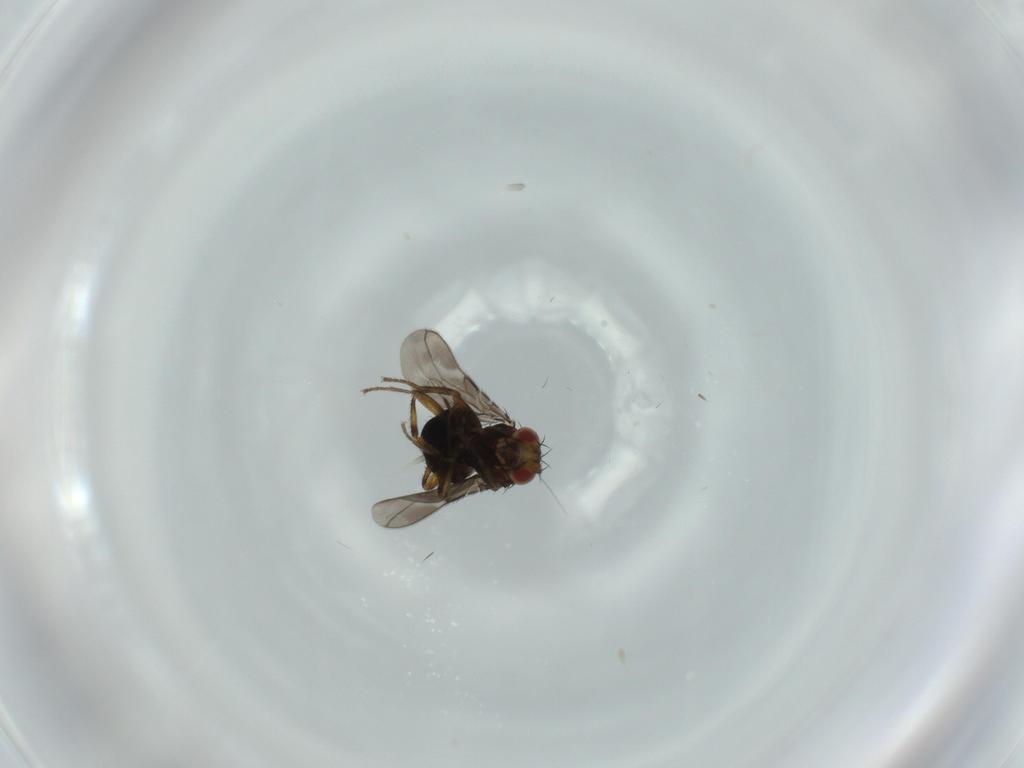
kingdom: Animalia
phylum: Arthropoda
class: Insecta
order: Diptera
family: Sphaeroceridae
